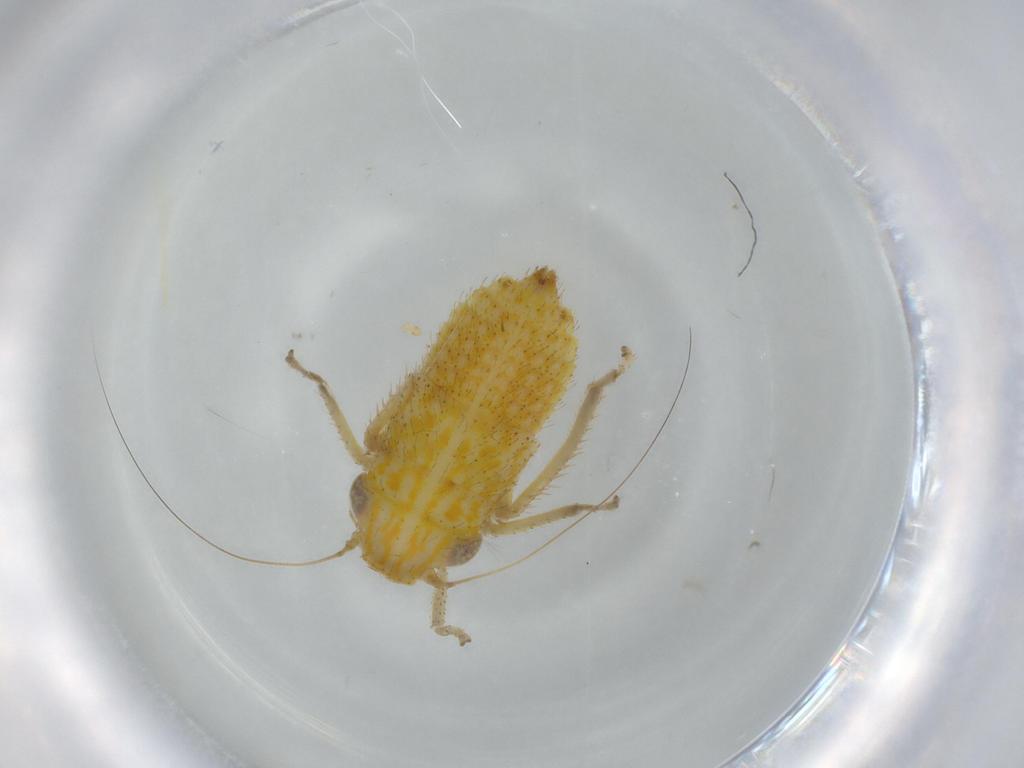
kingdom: Animalia
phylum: Arthropoda
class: Insecta
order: Hemiptera
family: Cicadellidae
